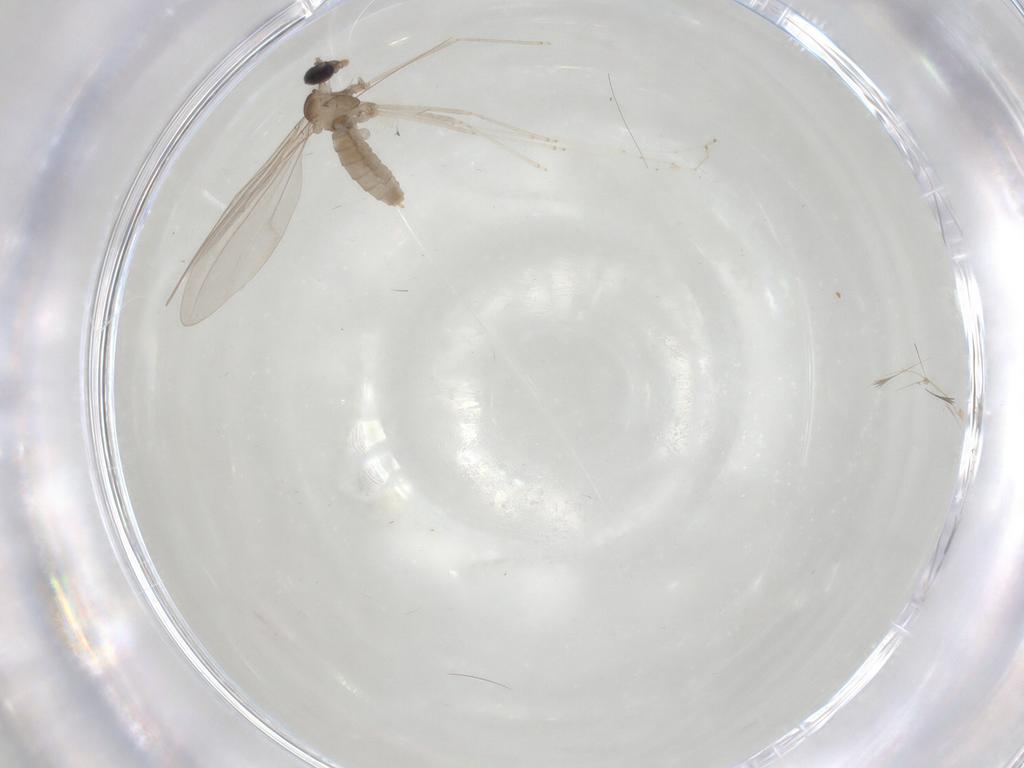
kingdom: Animalia
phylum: Arthropoda
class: Insecta
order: Diptera
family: Cecidomyiidae
